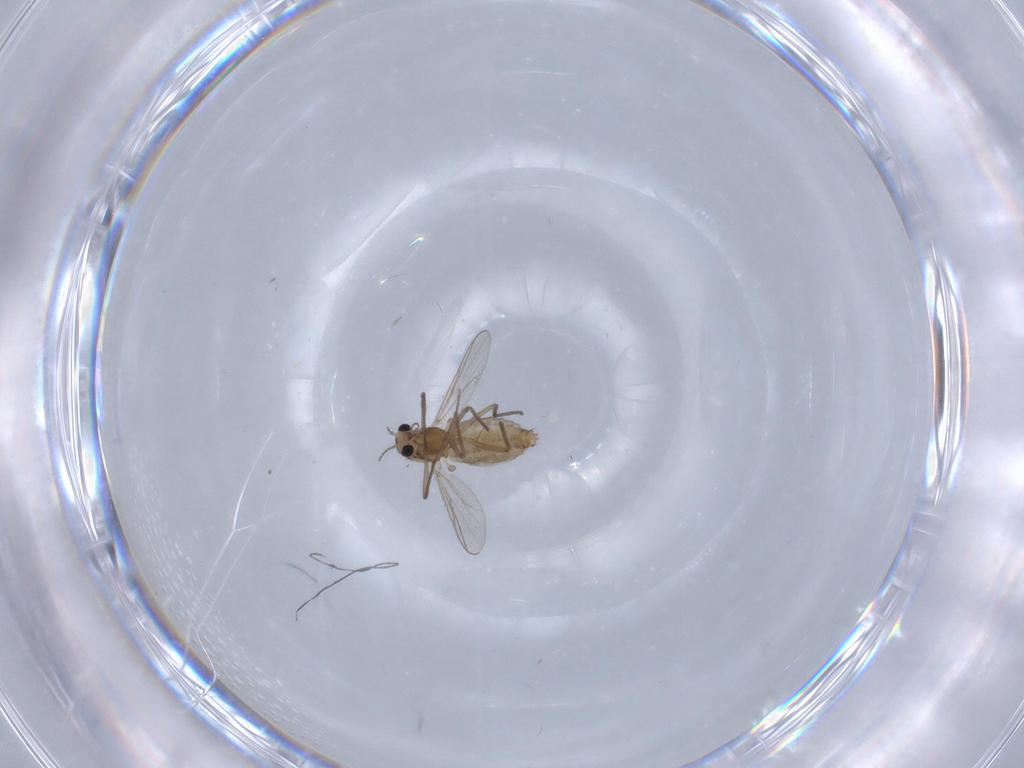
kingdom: Animalia
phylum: Arthropoda
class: Insecta
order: Diptera
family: Chironomidae
